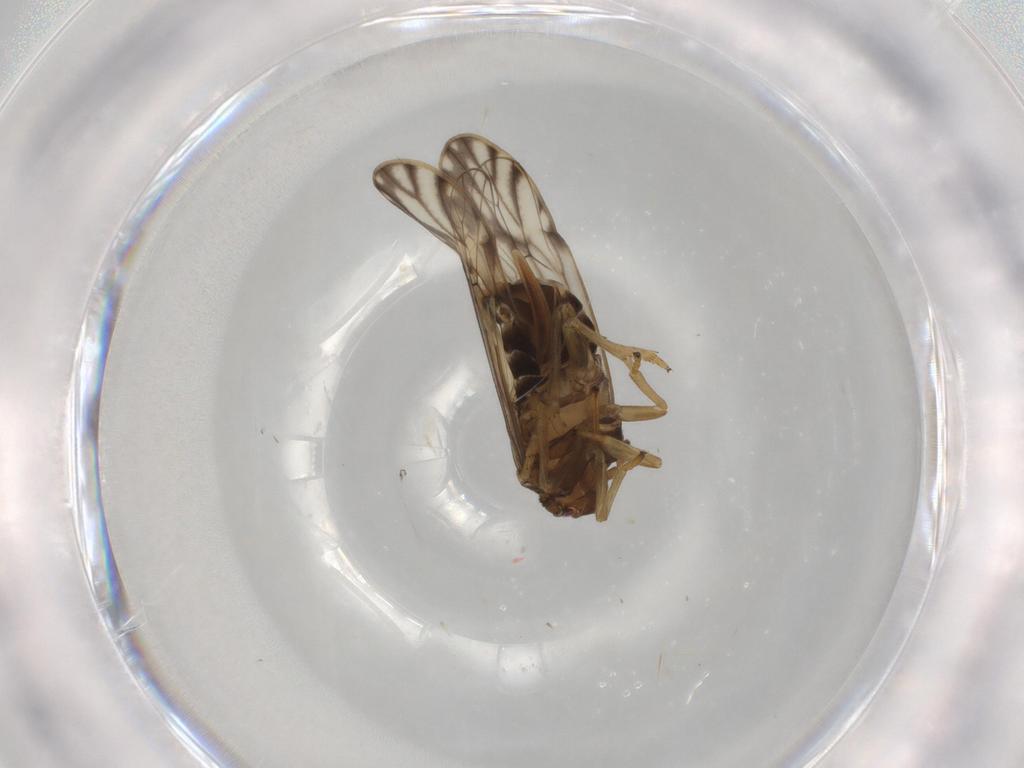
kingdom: Animalia
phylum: Arthropoda
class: Insecta
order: Hemiptera
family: Delphacidae
